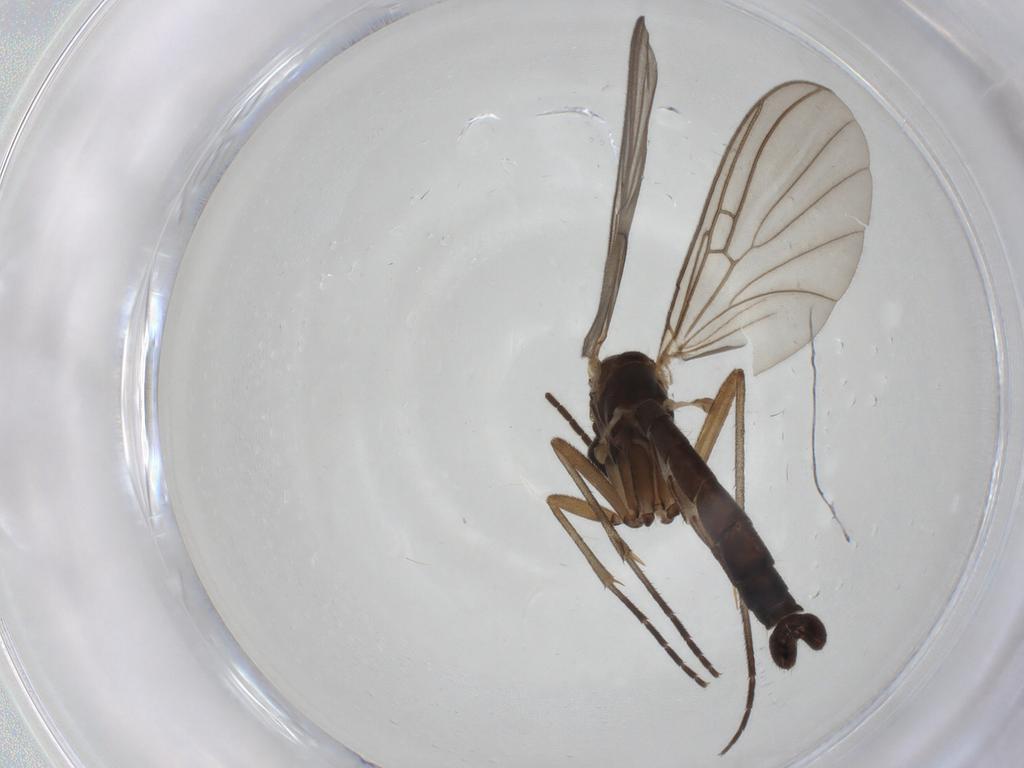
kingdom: Animalia
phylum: Arthropoda
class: Insecta
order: Diptera
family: Mycetophilidae
